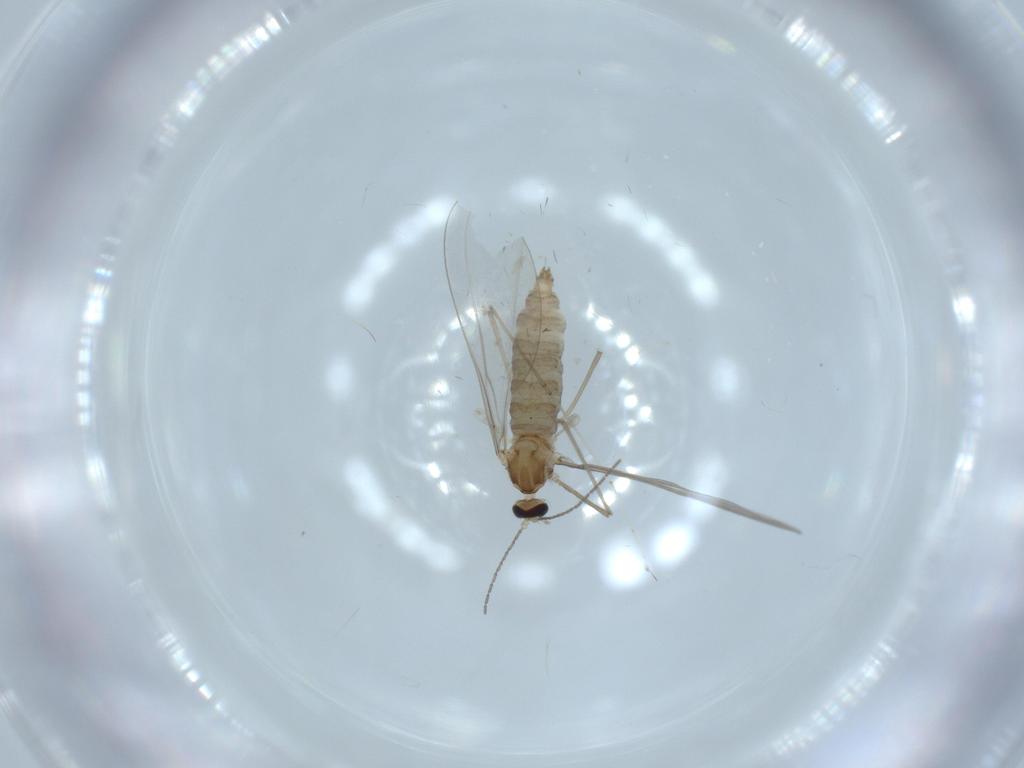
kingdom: Animalia
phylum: Arthropoda
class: Insecta
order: Diptera
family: Cecidomyiidae
